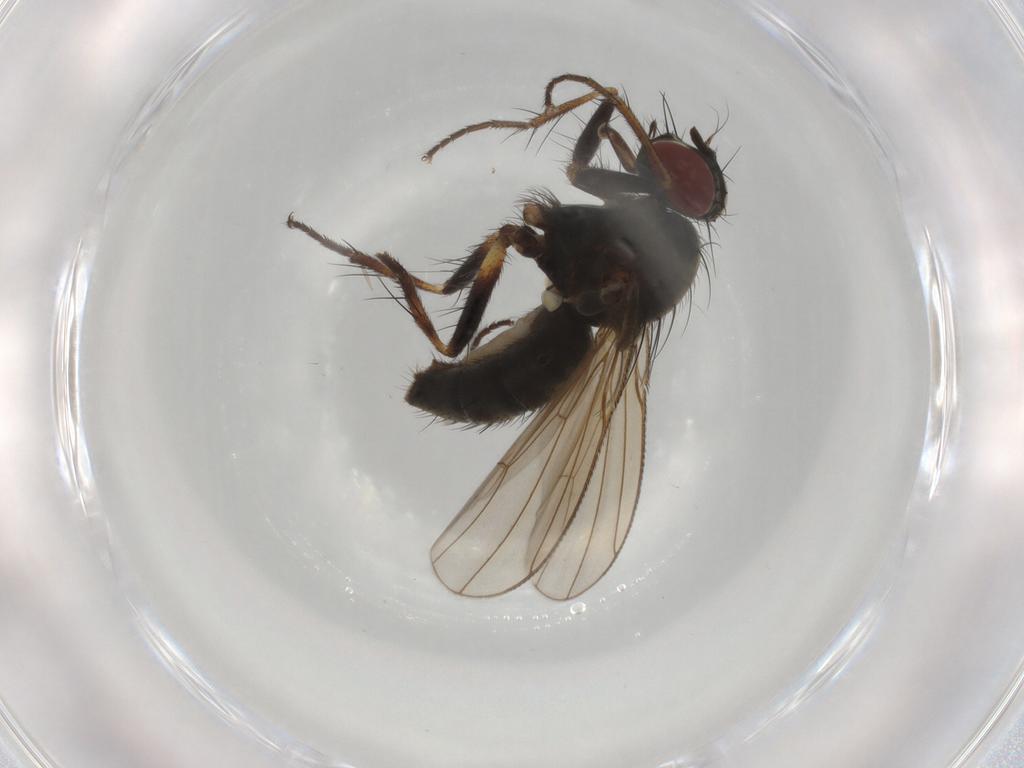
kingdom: Animalia
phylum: Arthropoda
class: Insecta
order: Diptera
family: Muscidae
